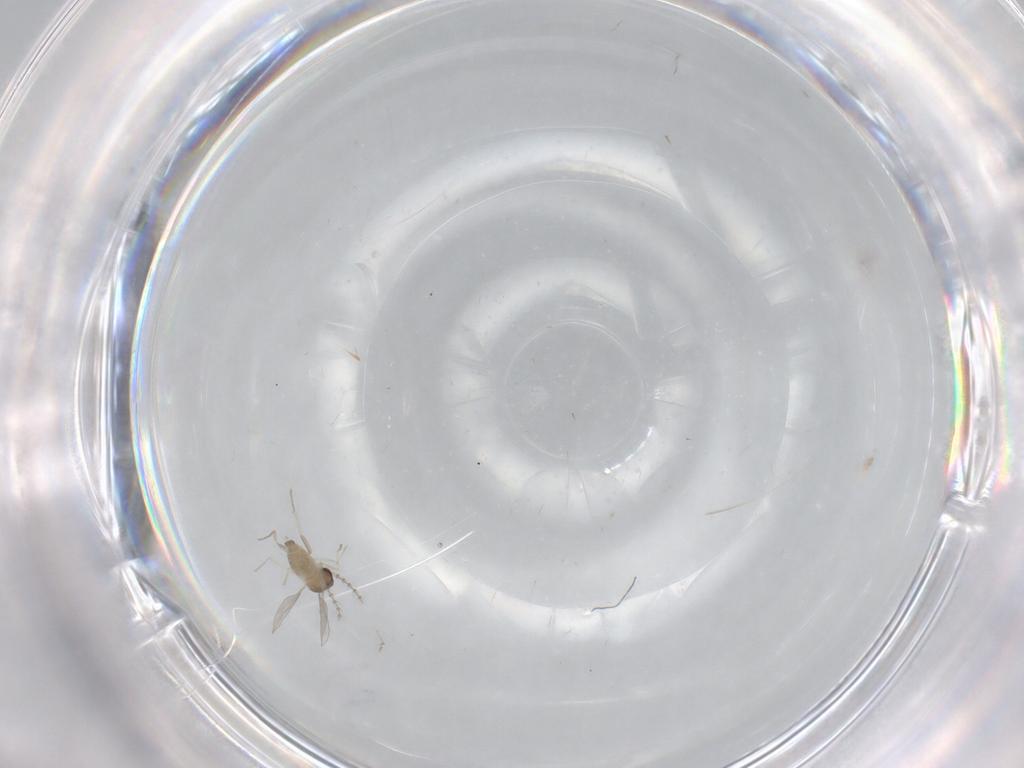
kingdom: Animalia
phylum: Arthropoda
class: Insecta
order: Diptera
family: Cecidomyiidae
